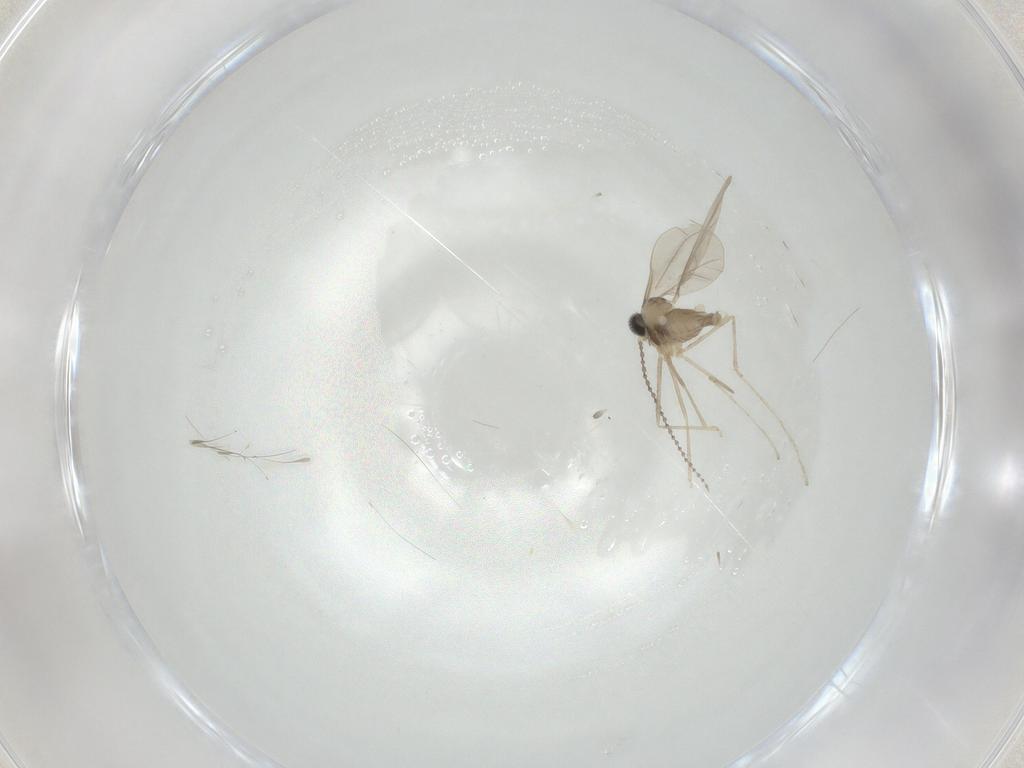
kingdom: Animalia
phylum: Arthropoda
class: Insecta
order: Diptera
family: Cecidomyiidae
